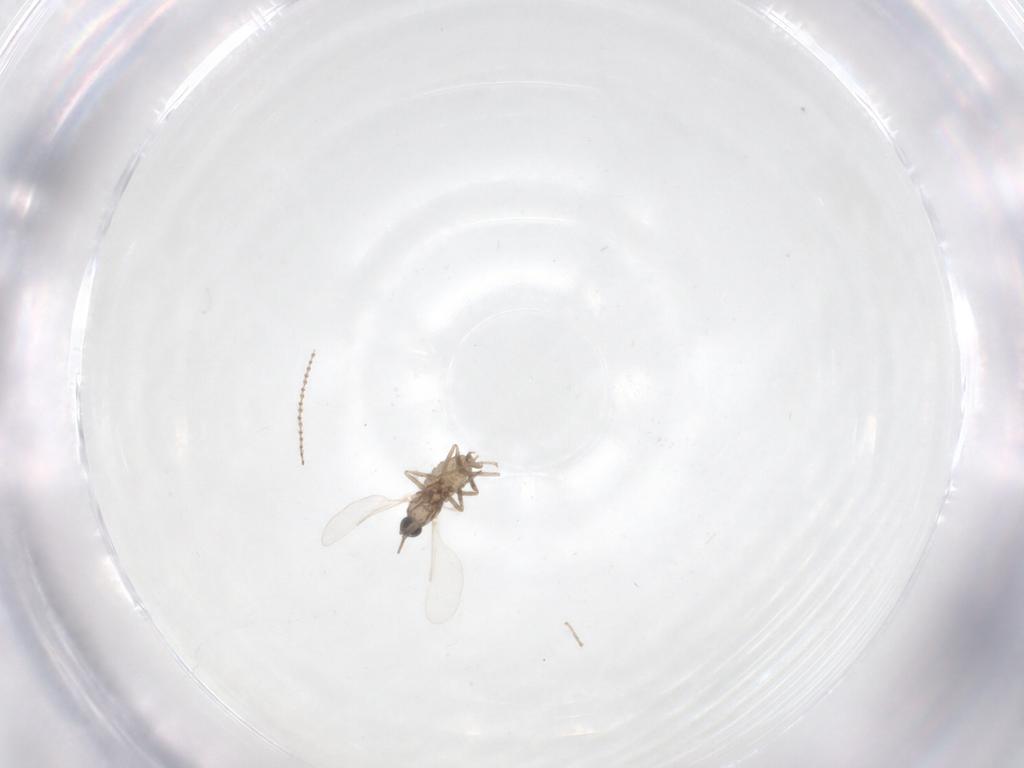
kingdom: Animalia
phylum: Arthropoda
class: Insecta
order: Diptera
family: Cecidomyiidae
